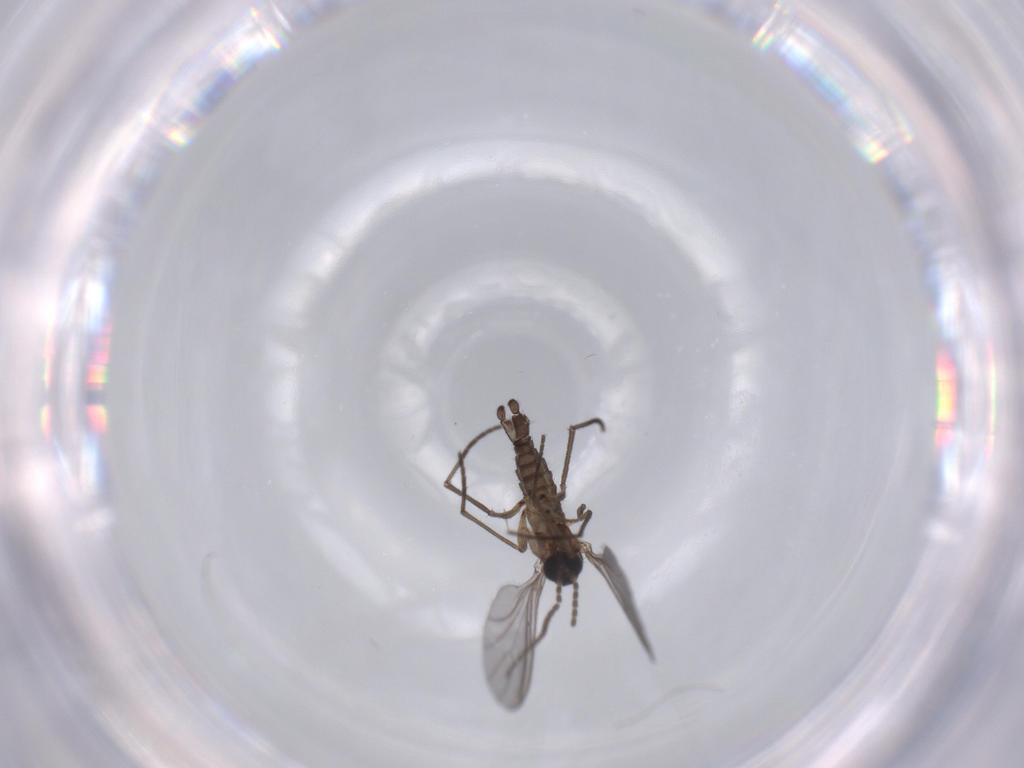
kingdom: Animalia
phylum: Arthropoda
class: Insecta
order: Diptera
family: Sciaridae
